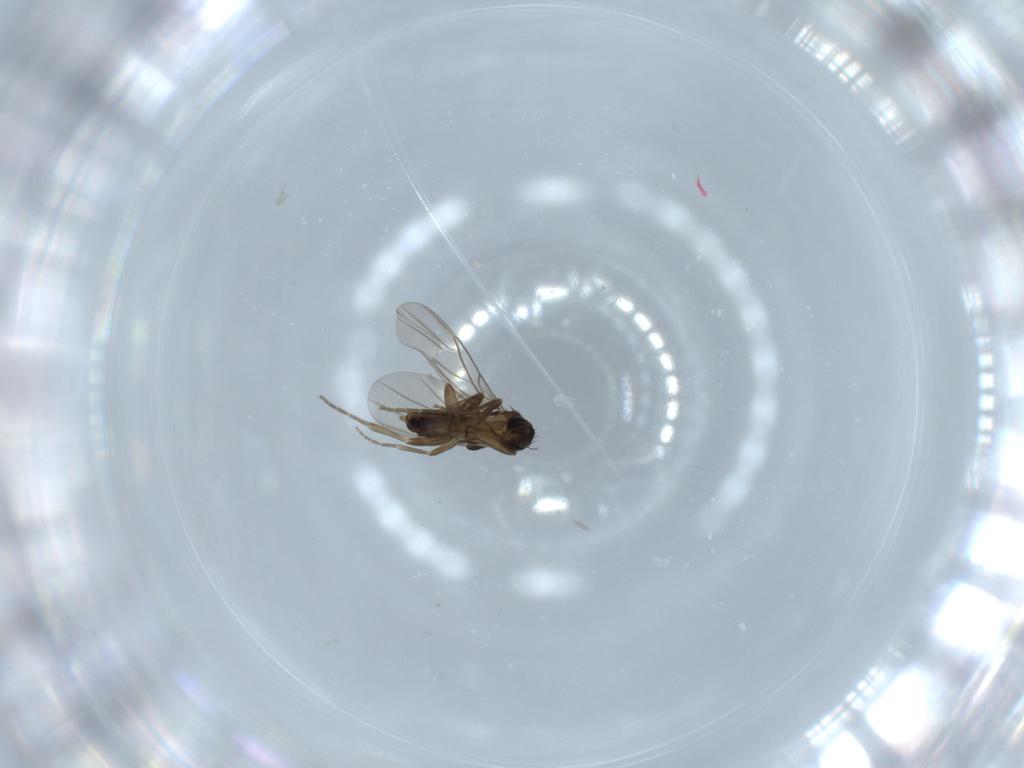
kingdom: Animalia
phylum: Arthropoda
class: Insecta
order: Diptera
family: Phoridae
